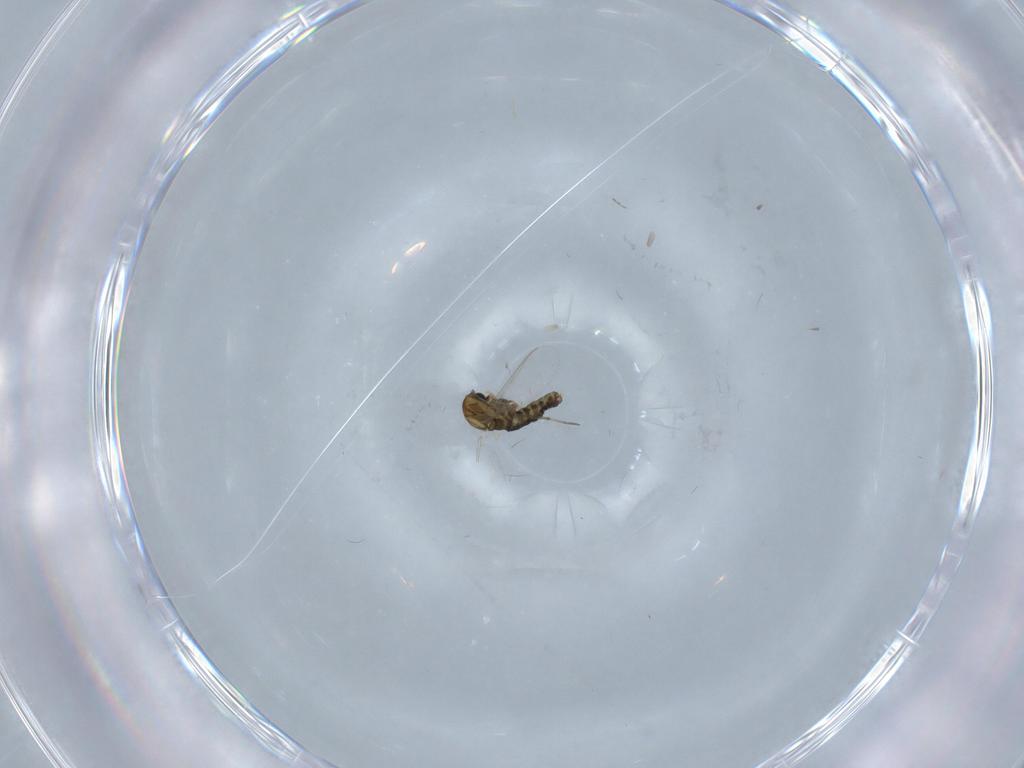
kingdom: Animalia
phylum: Arthropoda
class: Insecta
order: Diptera
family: Chironomidae
